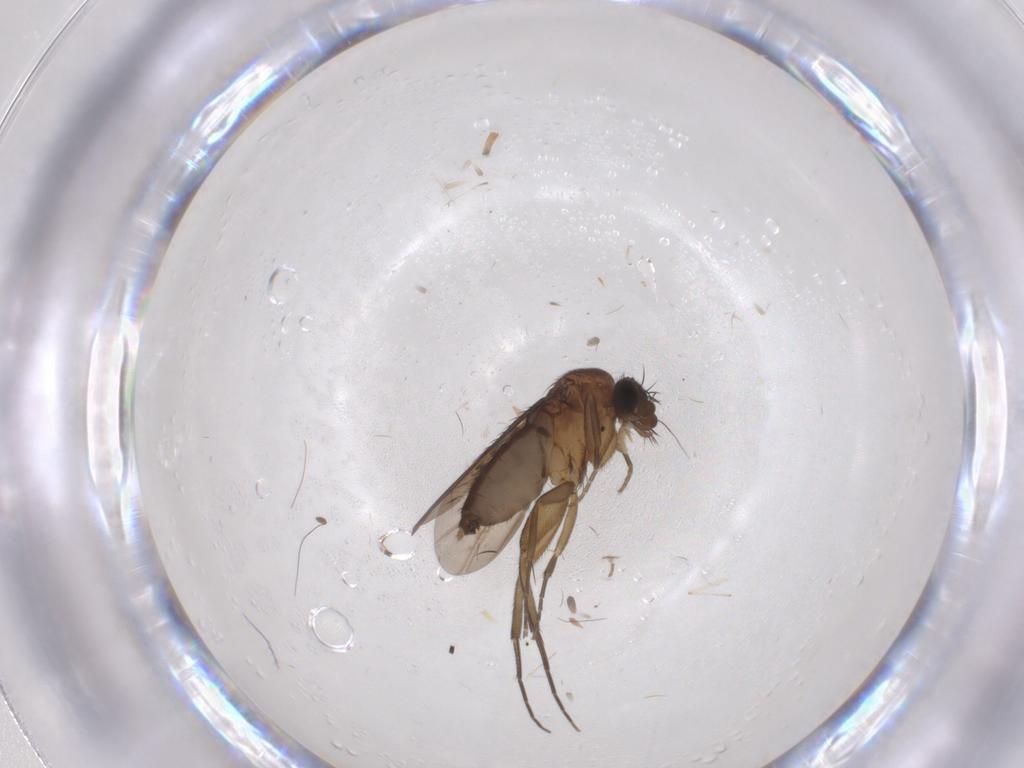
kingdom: Animalia
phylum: Arthropoda
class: Insecta
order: Diptera
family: Phoridae
